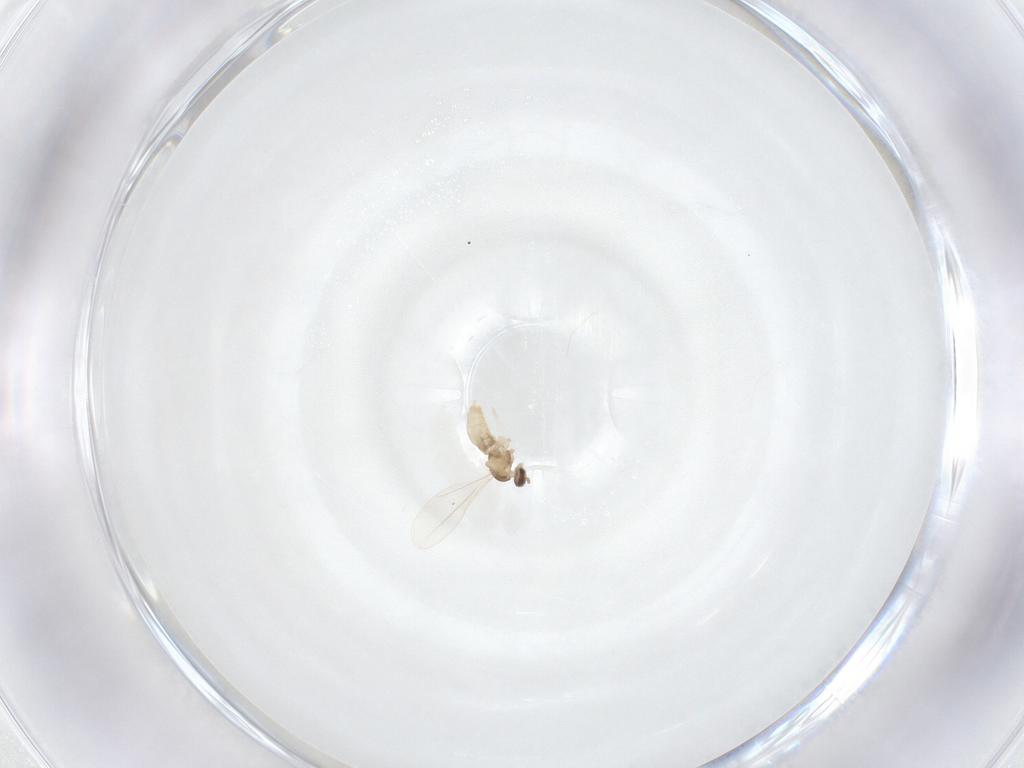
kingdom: Animalia
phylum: Arthropoda
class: Insecta
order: Diptera
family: Cecidomyiidae
